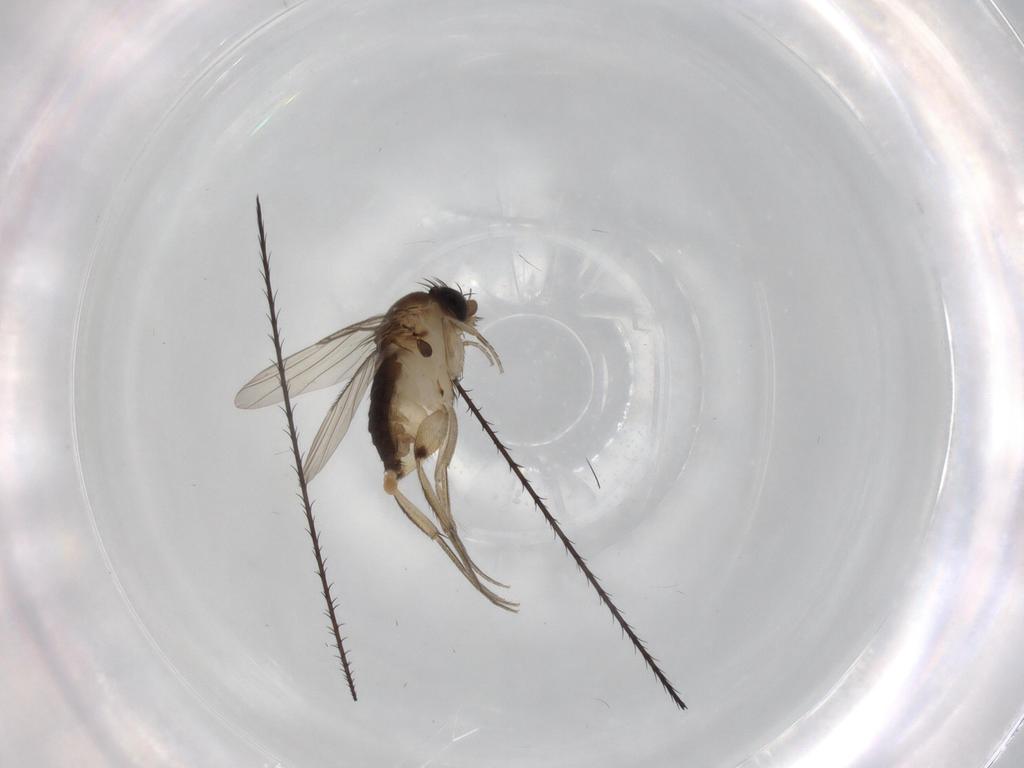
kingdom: Animalia
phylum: Arthropoda
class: Insecta
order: Diptera
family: Phoridae
